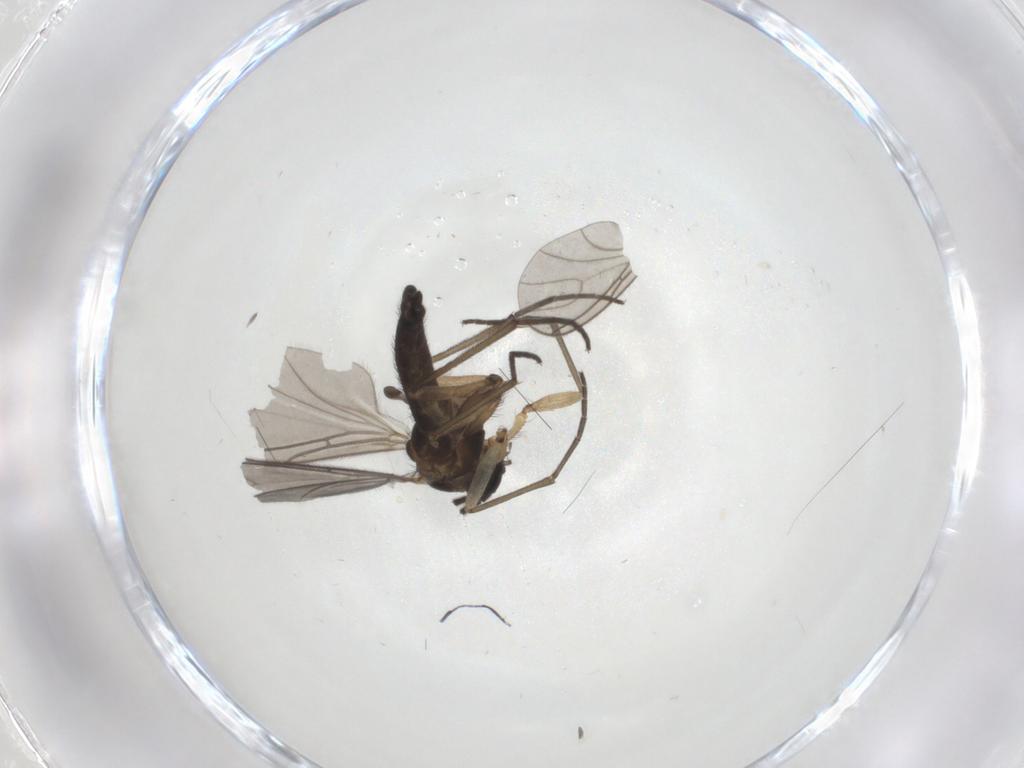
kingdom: Animalia
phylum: Arthropoda
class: Insecta
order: Diptera
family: Sciaridae
